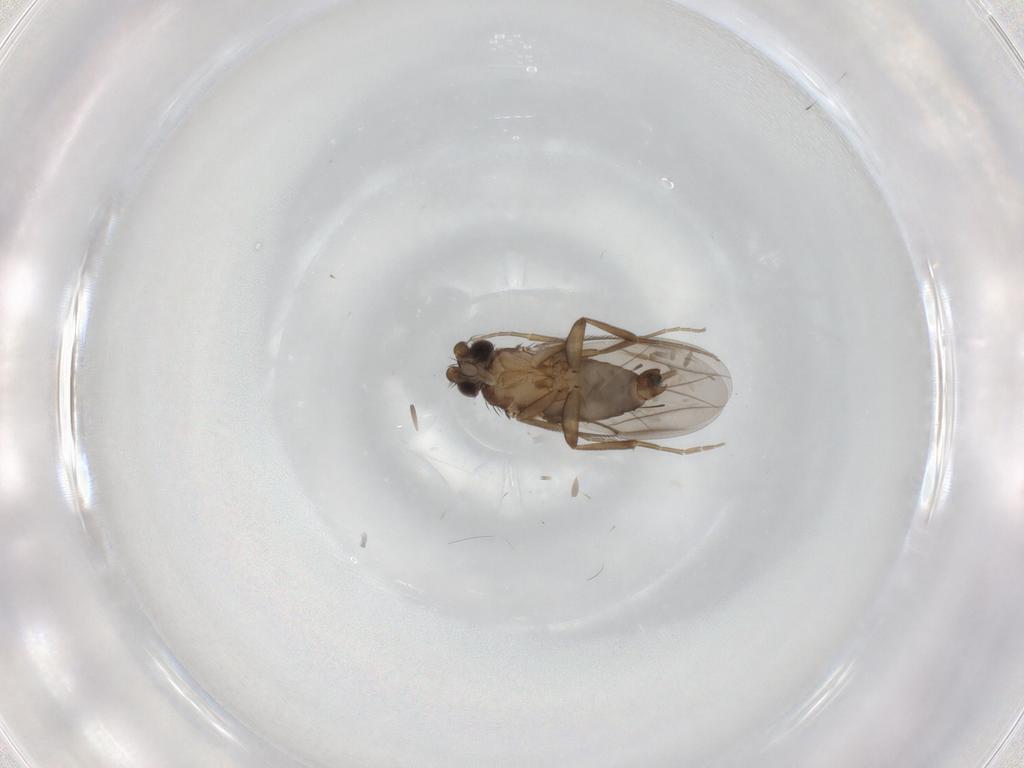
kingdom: Animalia
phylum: Arthropoda
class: Insecta
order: Diptera
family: Phoridae
